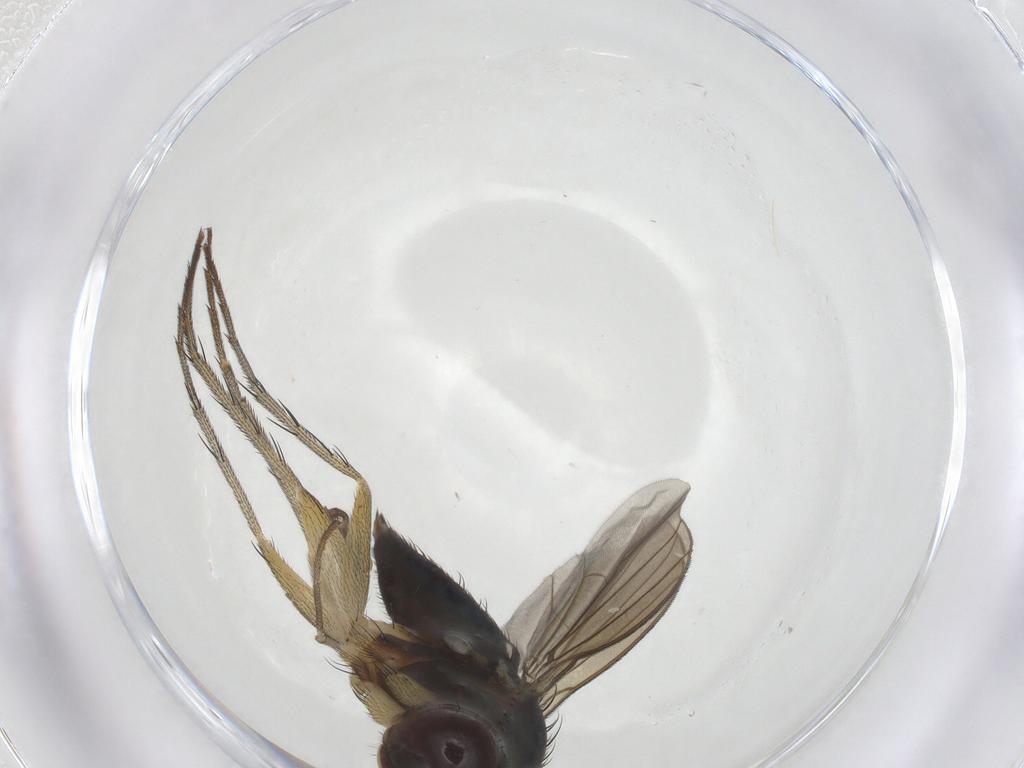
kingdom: Animalia
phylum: Arthropoda
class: Insecta
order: Diptera
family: Dolichopodidae
